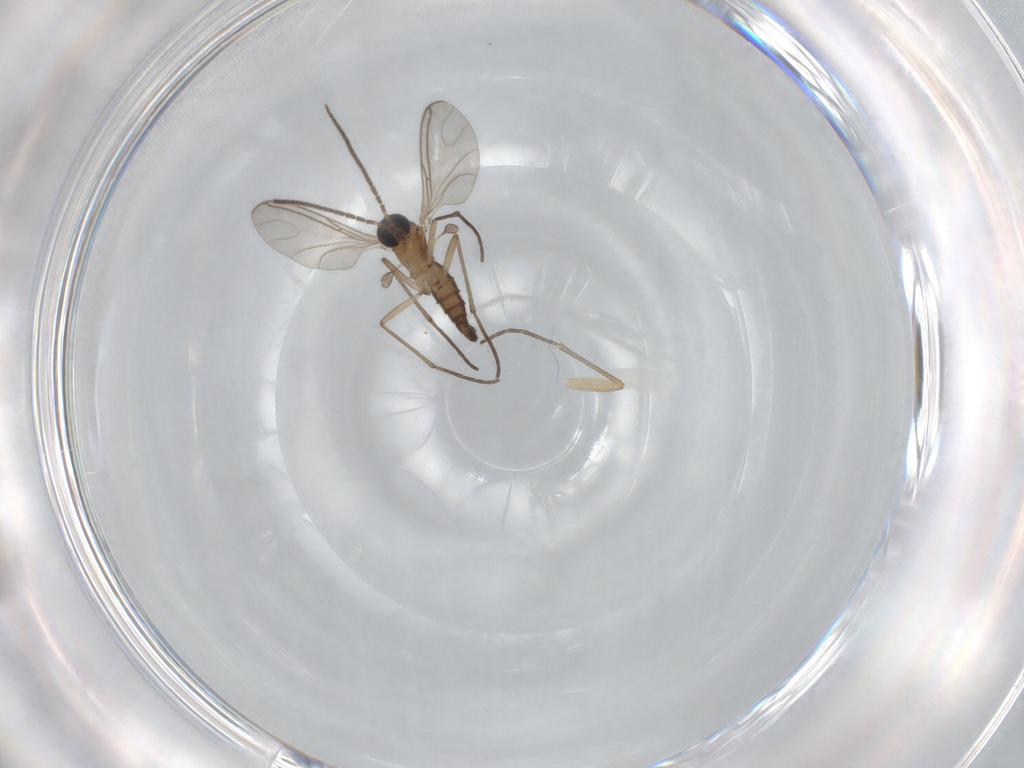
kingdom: Animalia
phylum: Arthropoda
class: Insecta
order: Diptera
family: Sciaridae
